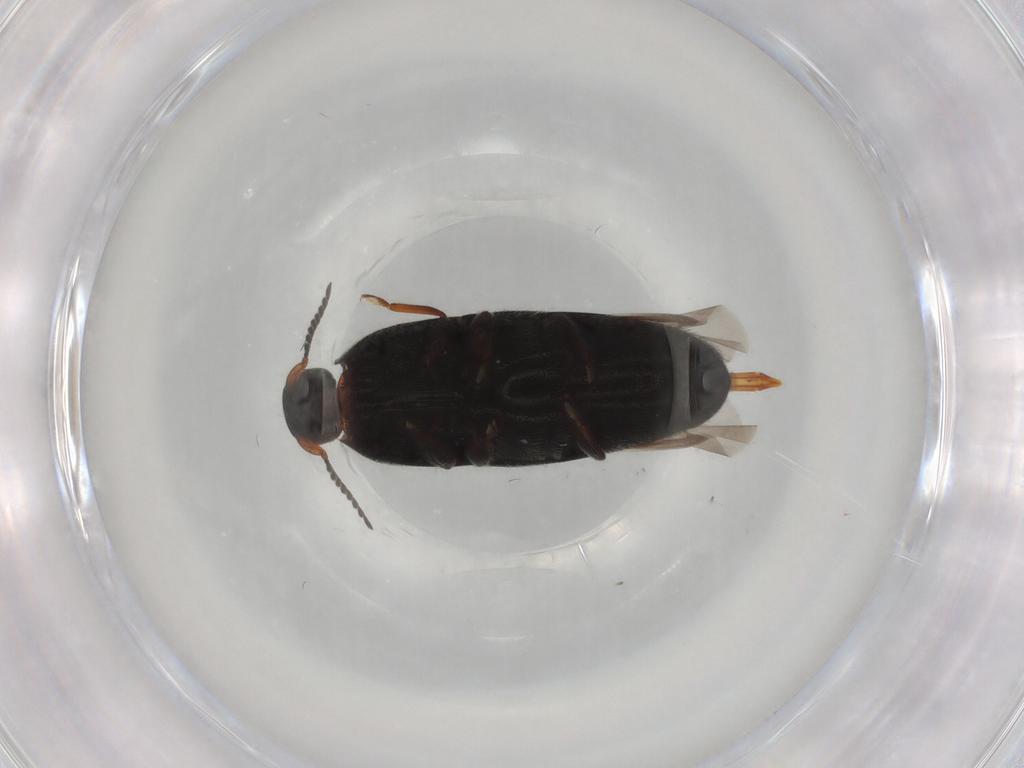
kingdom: Animalia
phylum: Arthropoda
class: Insecta
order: Coleoptera
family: Elateridae
